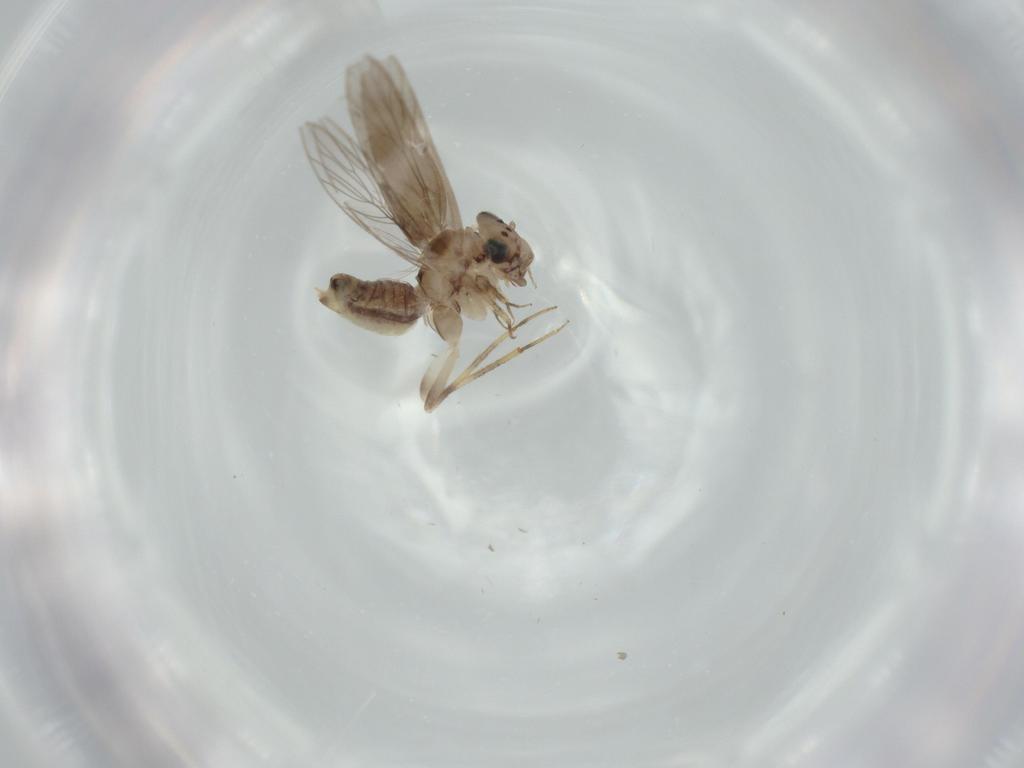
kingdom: Animalia
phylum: Arthropoda
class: Insecta
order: Psocodea
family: Lepidopsocidae
